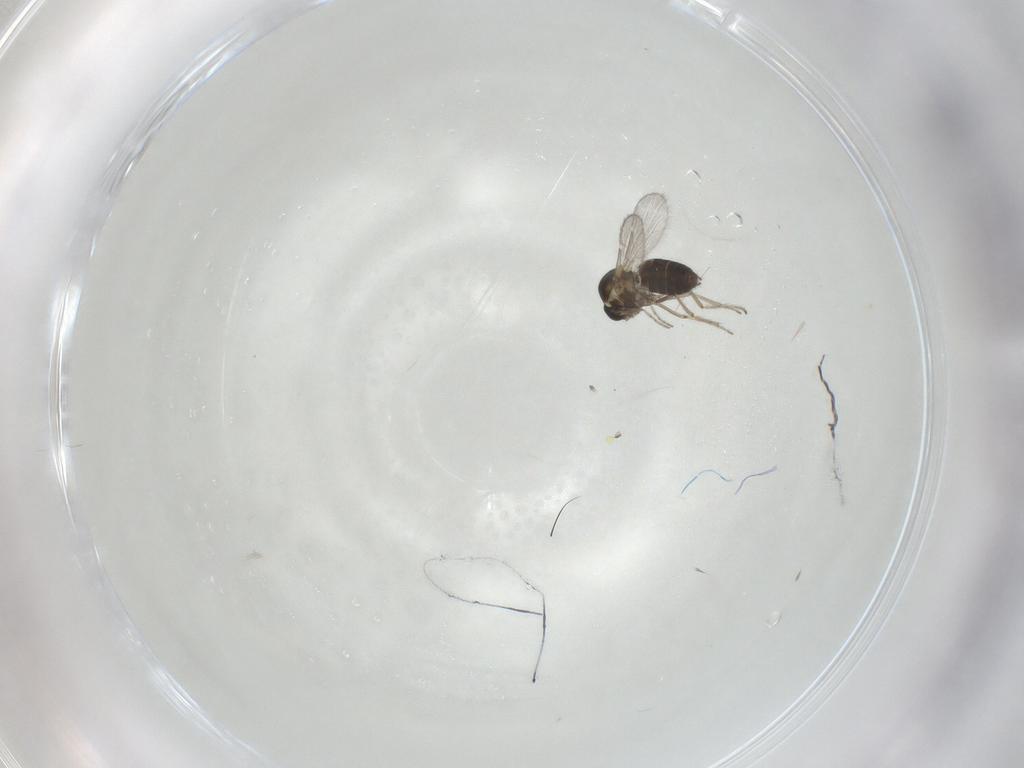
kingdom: Animalia
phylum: Arthropoda
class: Insecta
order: Diptera
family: Ceratopogonidae
